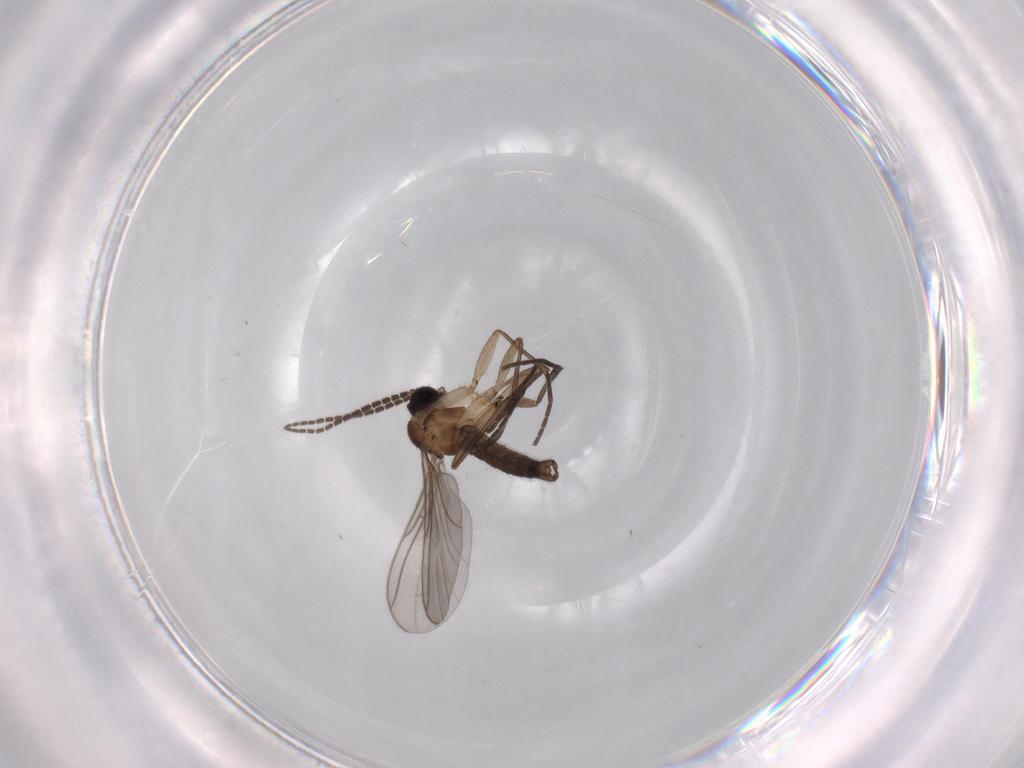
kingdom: Animalia
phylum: Arthropoda
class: Insecta
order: Diptera
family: Sciaridae
